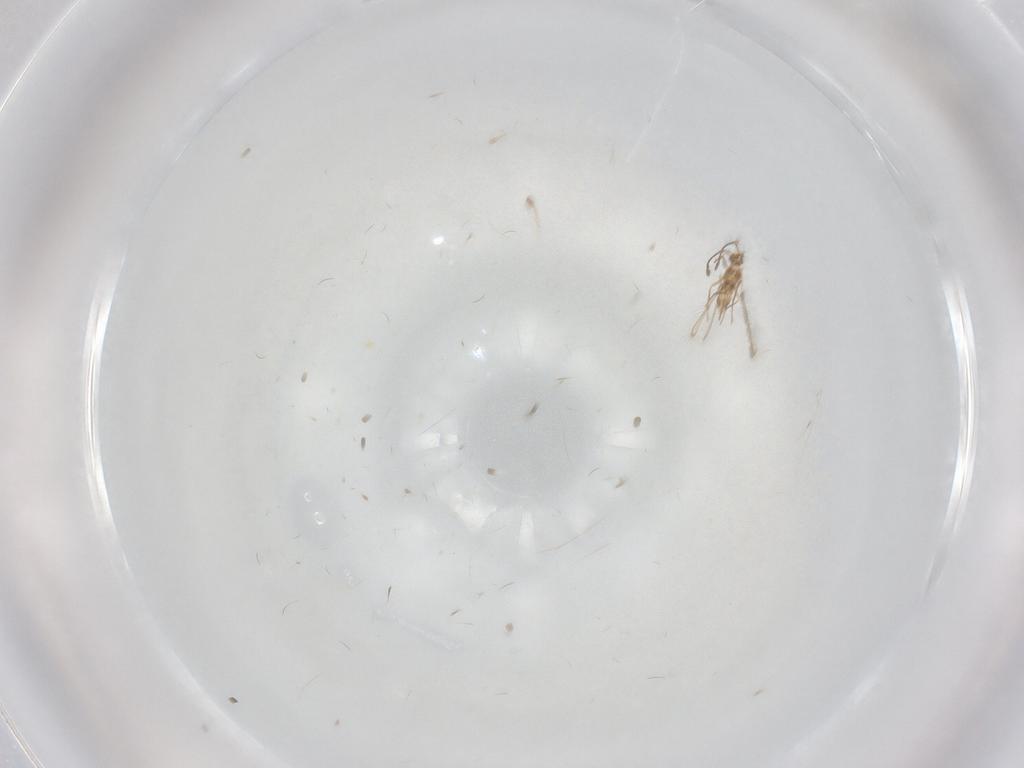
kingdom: Animalia
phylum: Arthropoda
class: Insecta
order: Hymenoptera
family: Aphelinidae
